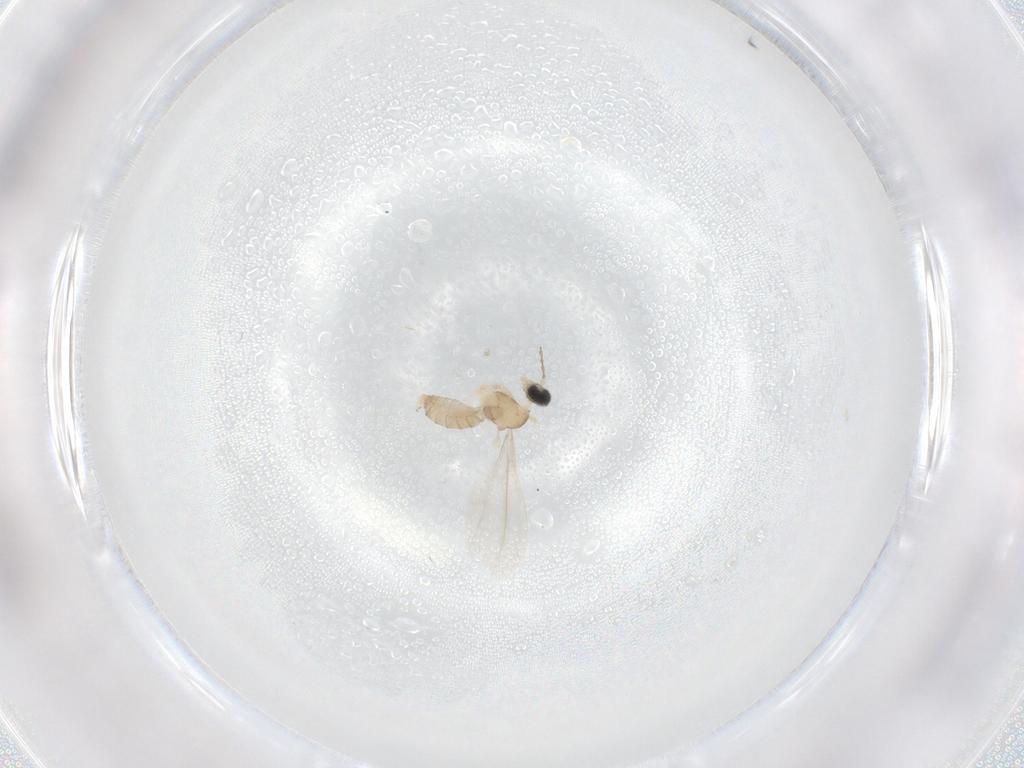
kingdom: Animalia
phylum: Arthropoda
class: Insecta
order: Diptera
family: Cecidomyiidae
